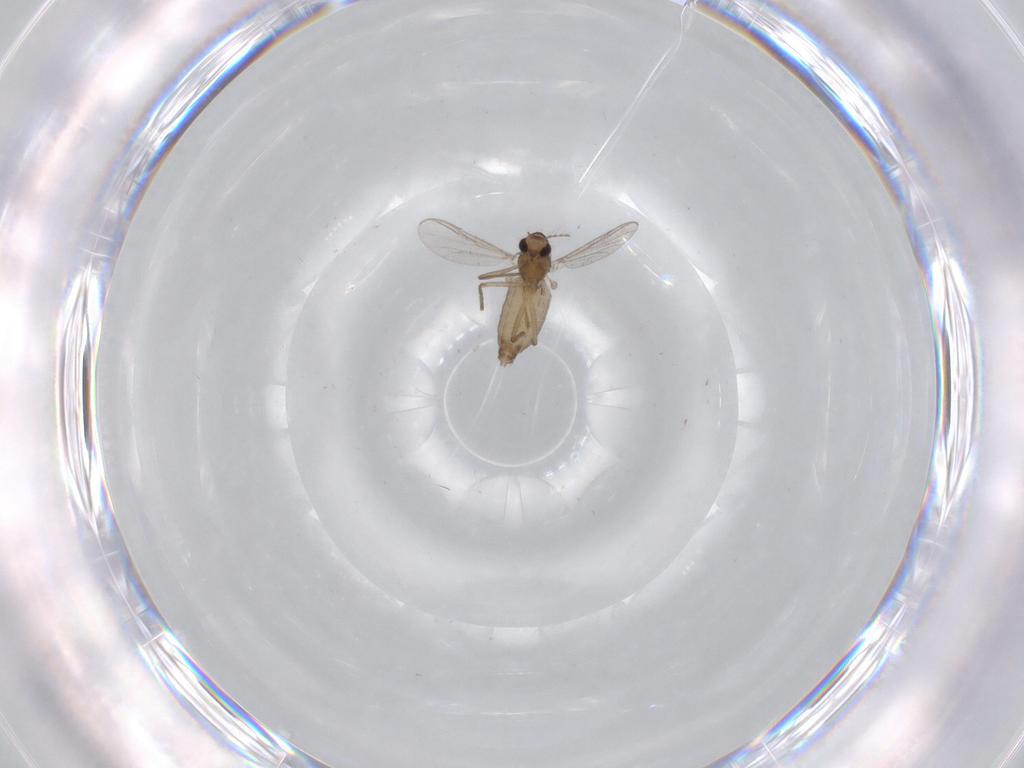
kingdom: Animalia
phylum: Arthropoda
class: Insecta
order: Diptera
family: Chironomidae
